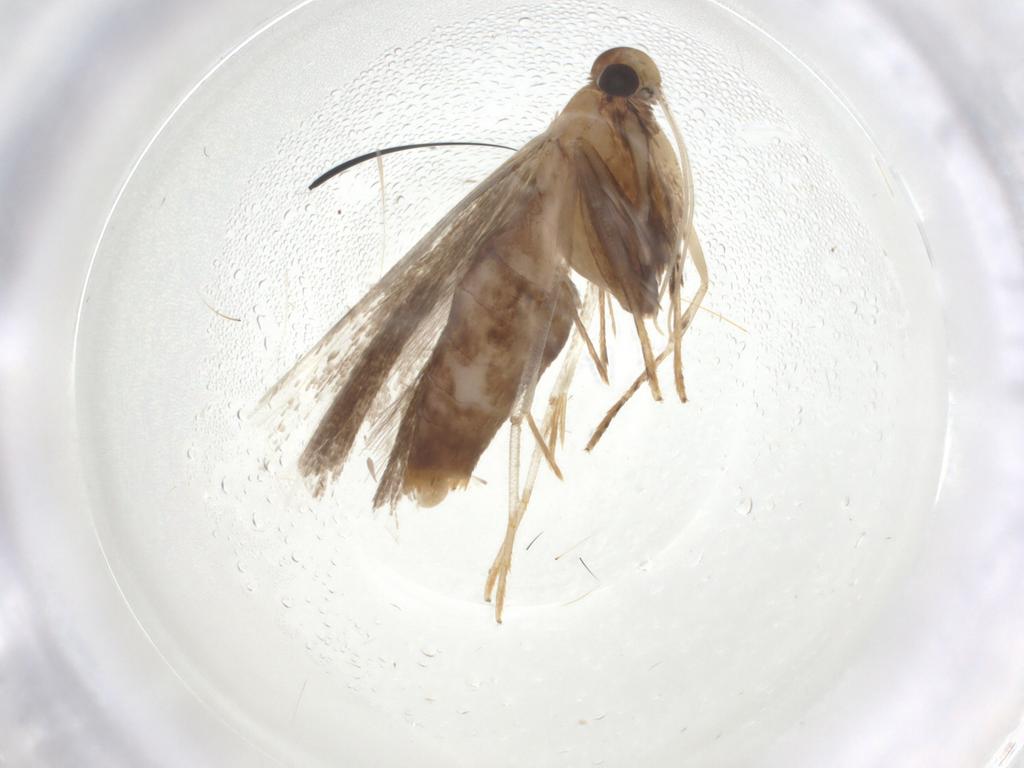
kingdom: Animalia
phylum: Arthropoda
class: Insecta
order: Lepidoptera
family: Gelechiidae
